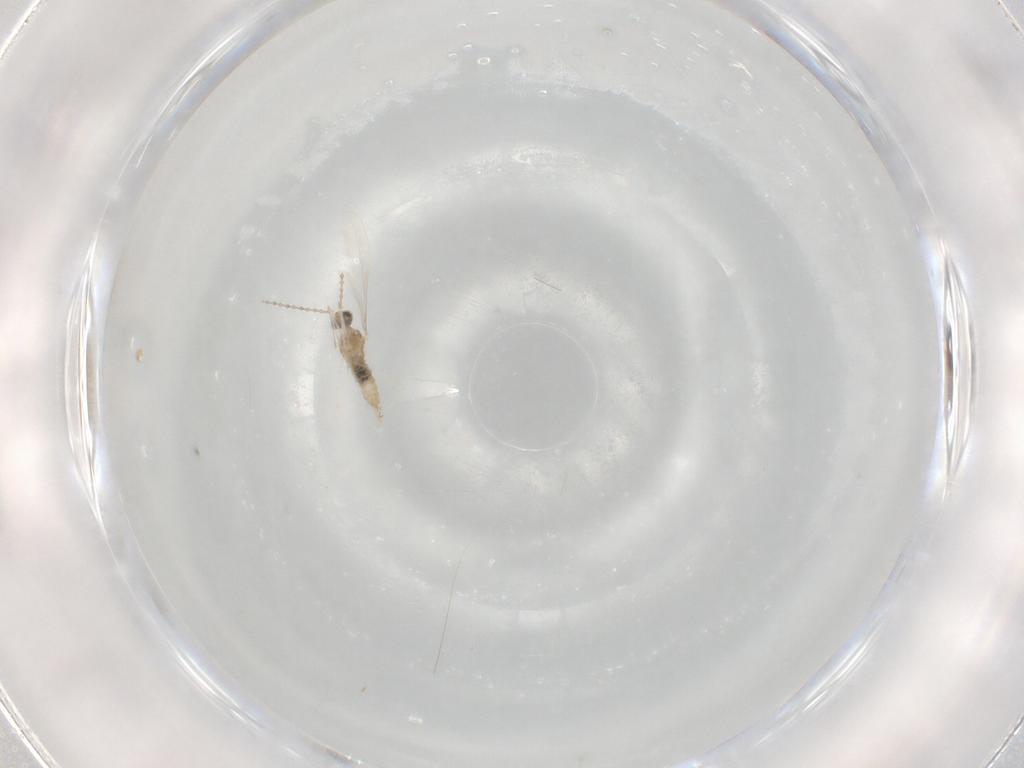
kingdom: Animalia
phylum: Arthropoda
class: Insecta
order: Diptera
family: Cecidomyiidae
